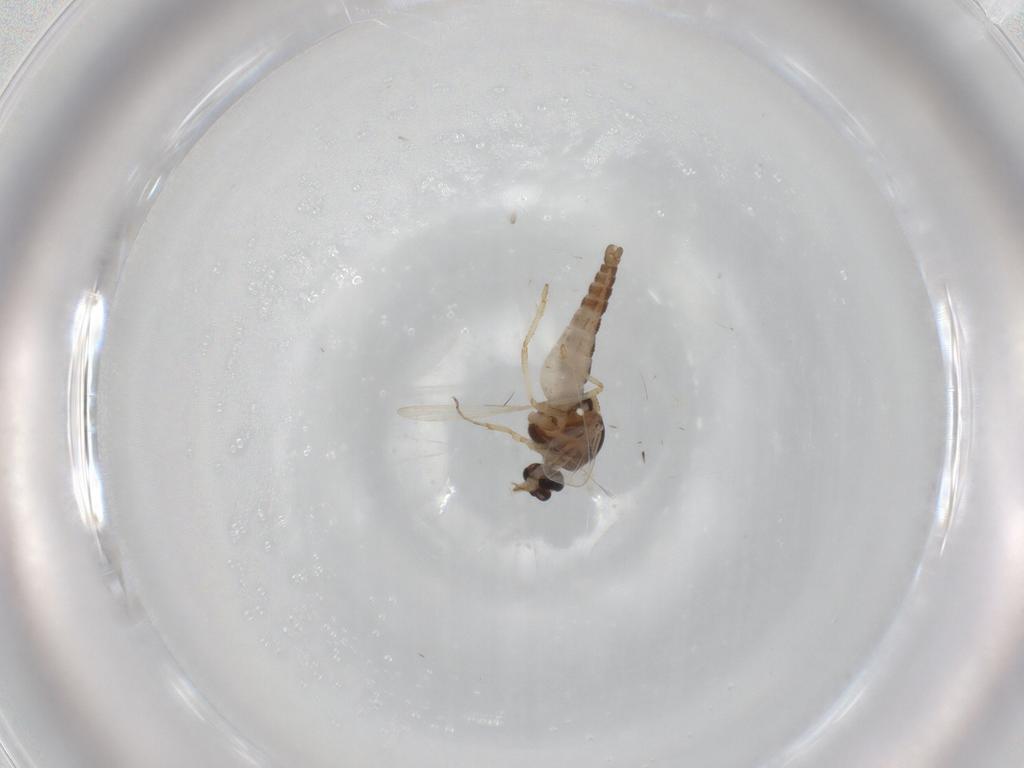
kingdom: Animalia
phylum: Arthropoda
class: Insecta
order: Diptera
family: Ceratopogonidae
